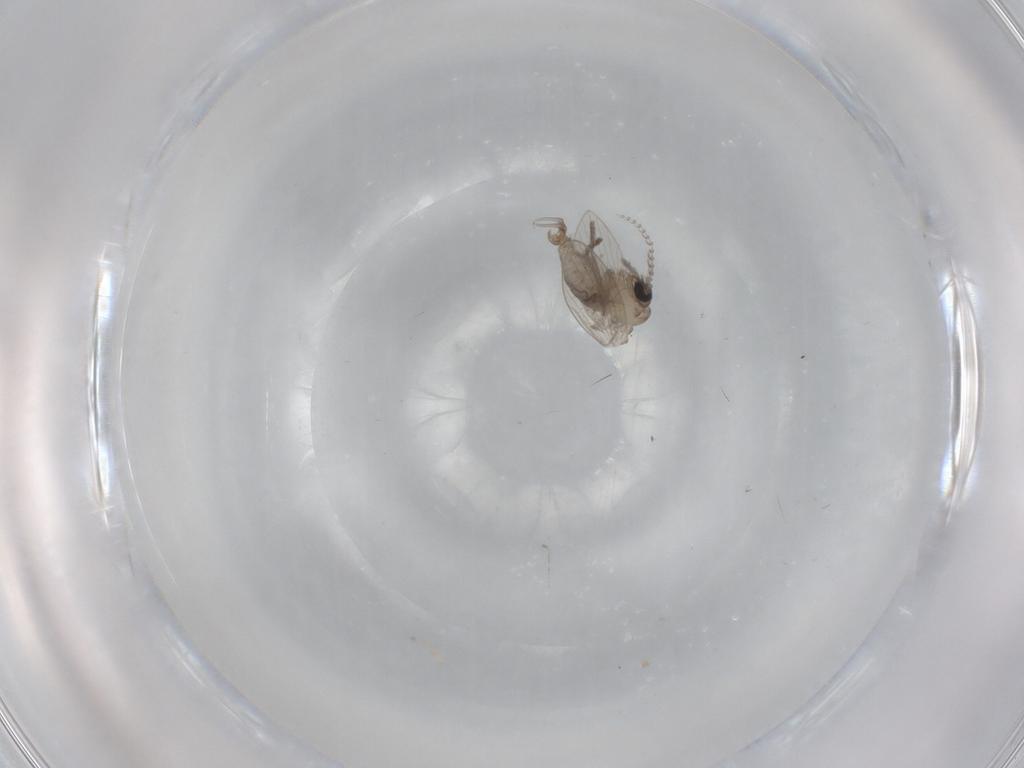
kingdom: Animalia
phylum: Arthropoda
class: Insecta
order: Diptera
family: Psychodidae
